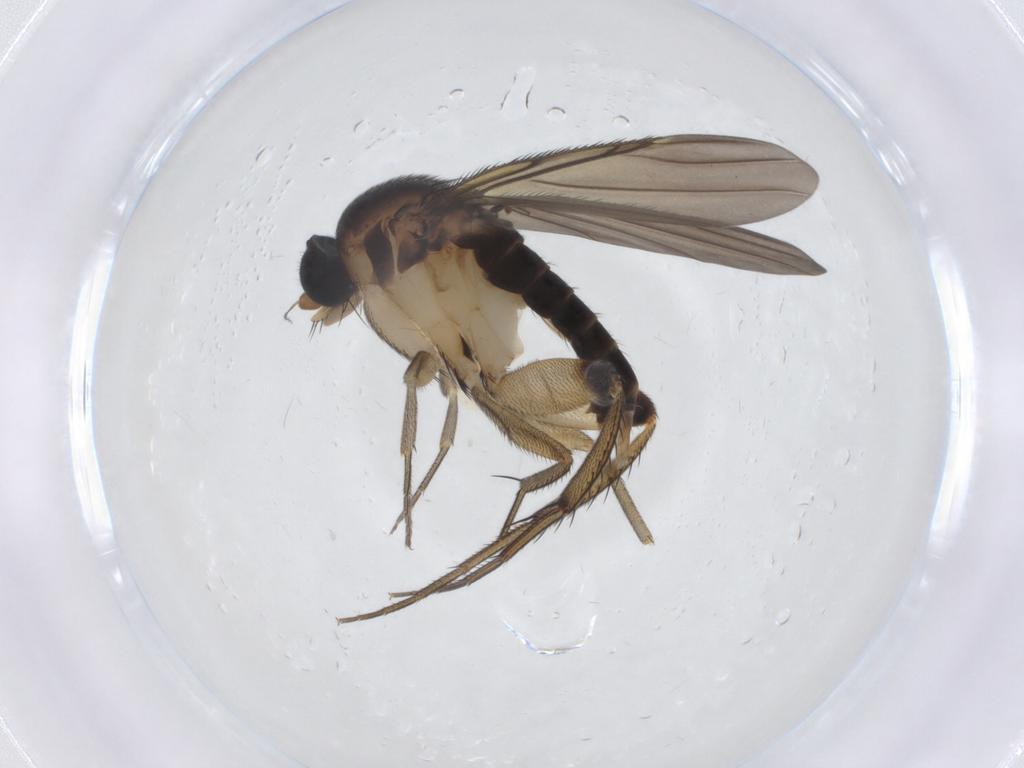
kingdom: Animalia
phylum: Arthropoda
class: Insecta
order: Diptera
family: Phoridae
